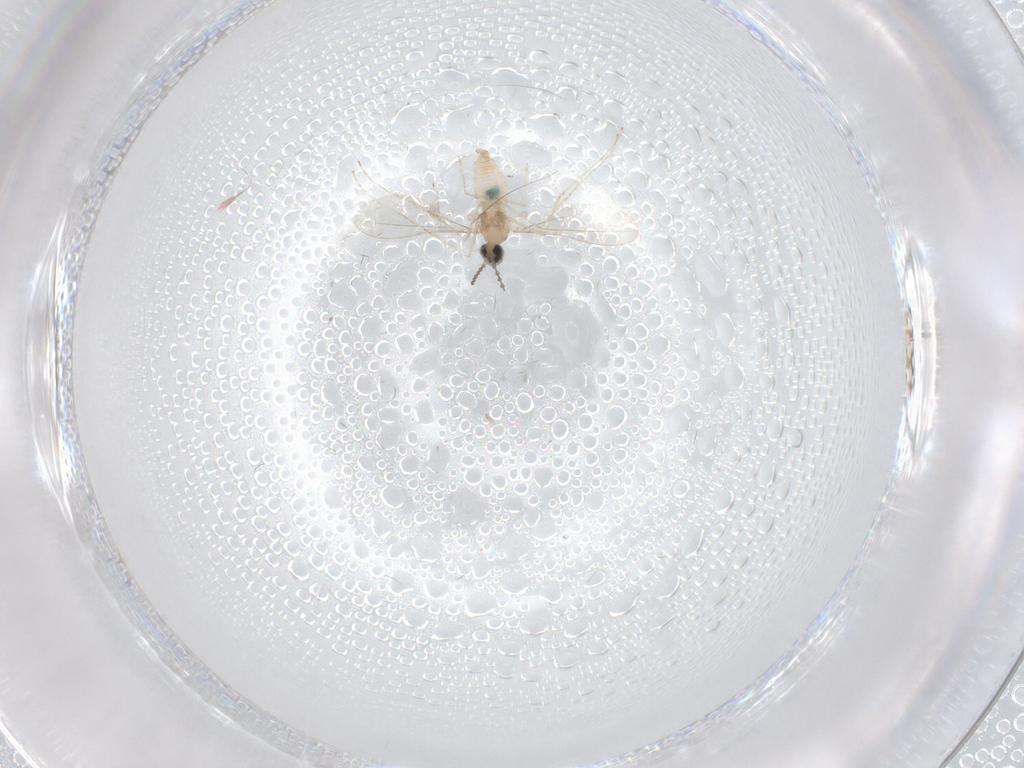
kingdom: Animalia
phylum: Arthropoda
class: Insecta
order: Diptera
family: Cecidomyiidae
